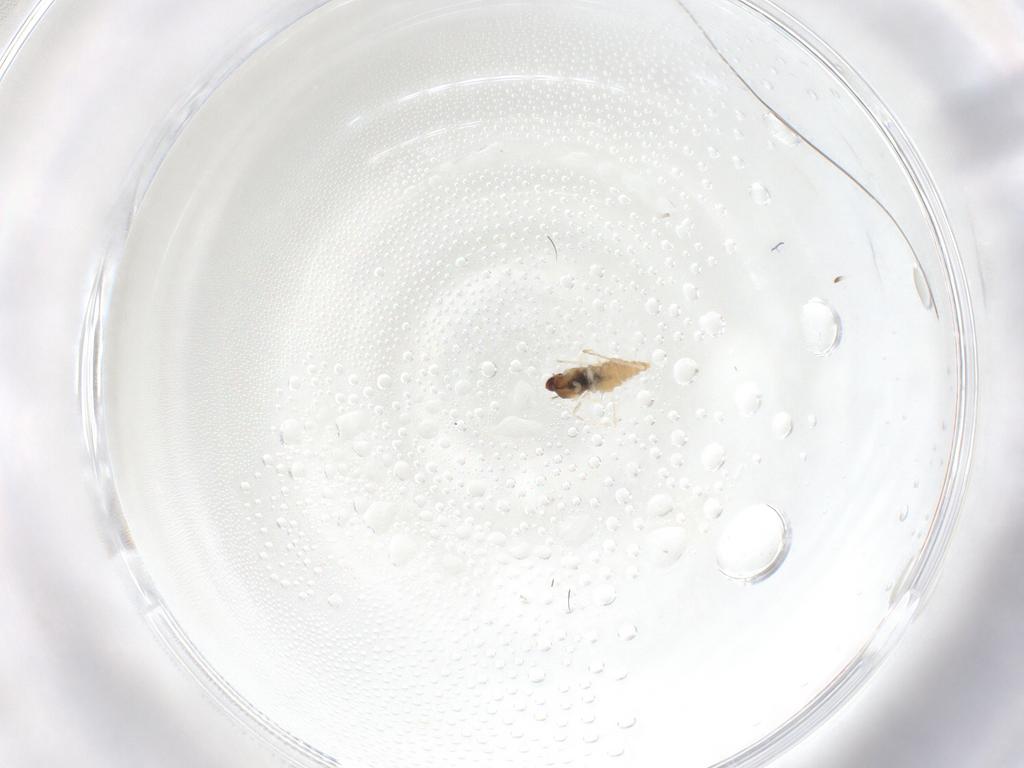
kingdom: Animalia
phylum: Arthropoda
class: Insecta
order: Diptera
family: Cecidomyiidae
